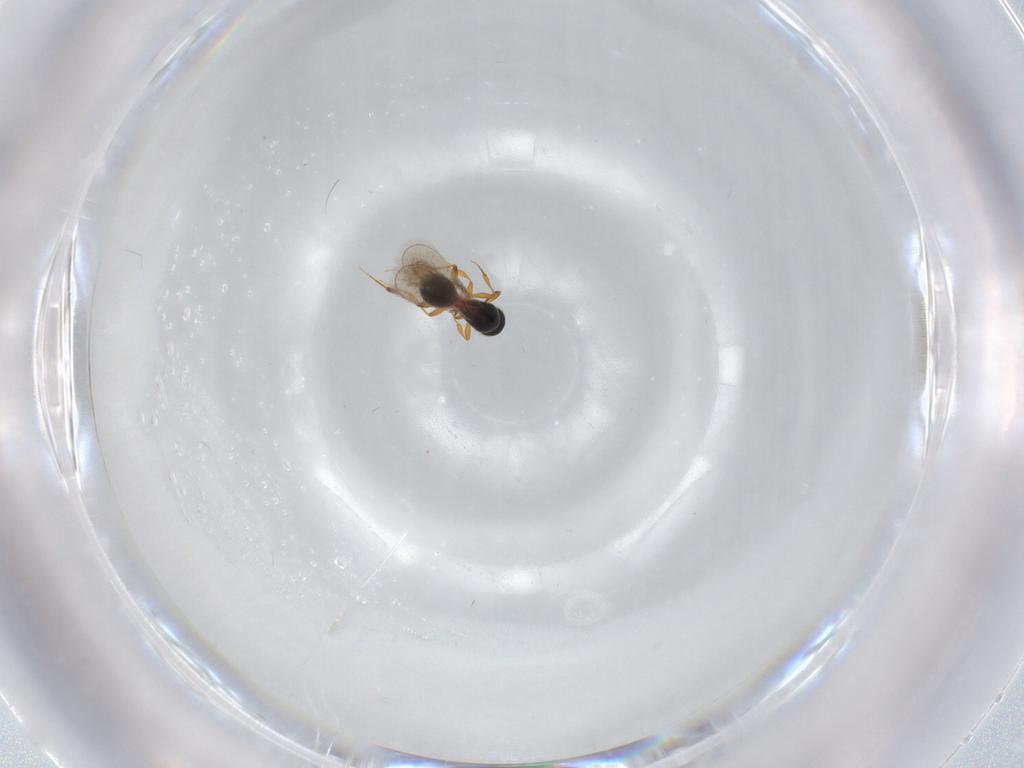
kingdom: Animalia
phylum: Arthropoda
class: Insecta
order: Hymenoptera
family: Platygastridae
